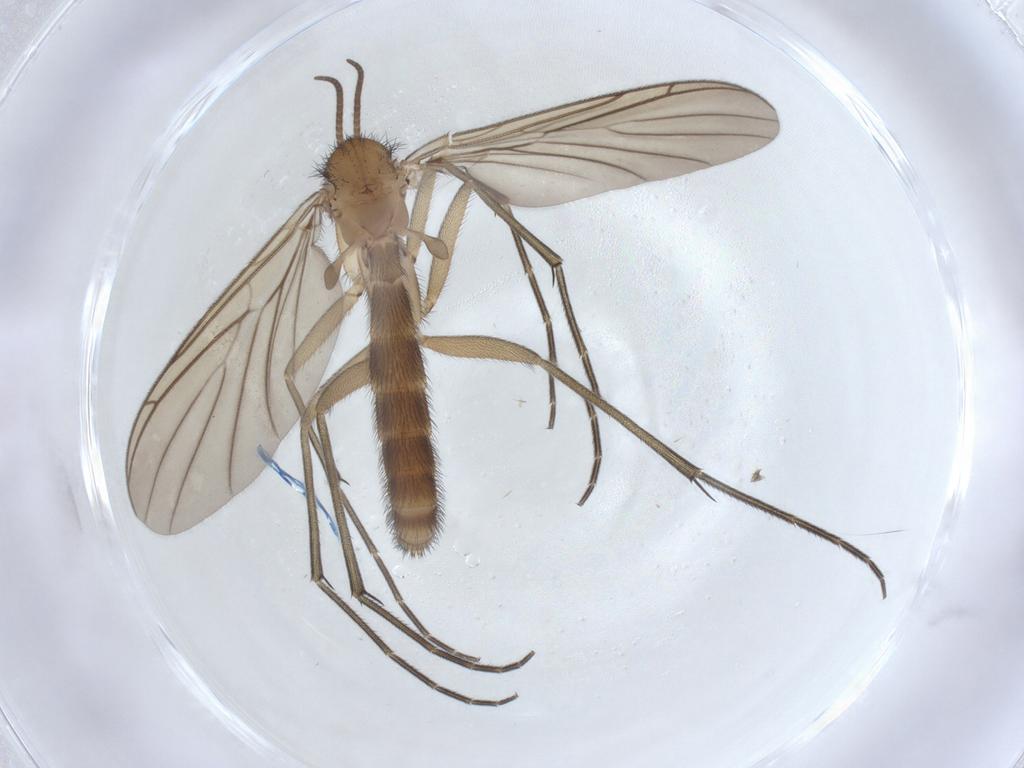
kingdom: Animalia
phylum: Arthropoda
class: Insecta
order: Diptera
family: Keroplatidae
